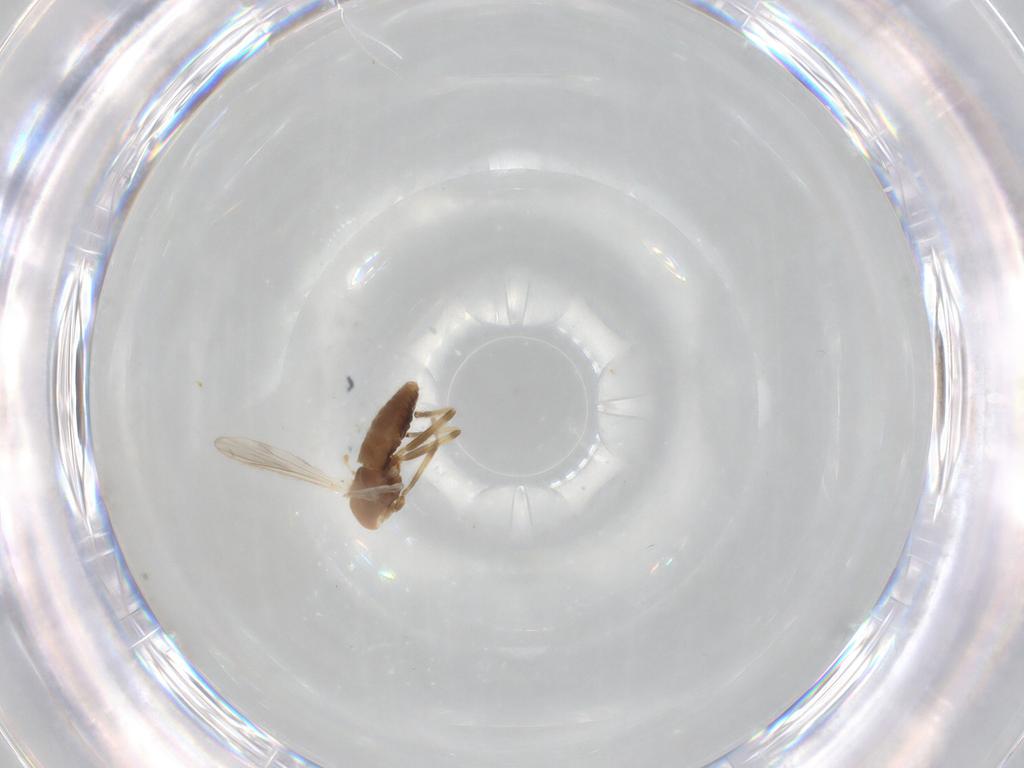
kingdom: Animalia
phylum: Arthropoda
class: Insecta
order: Diptera
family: Chironomidae
